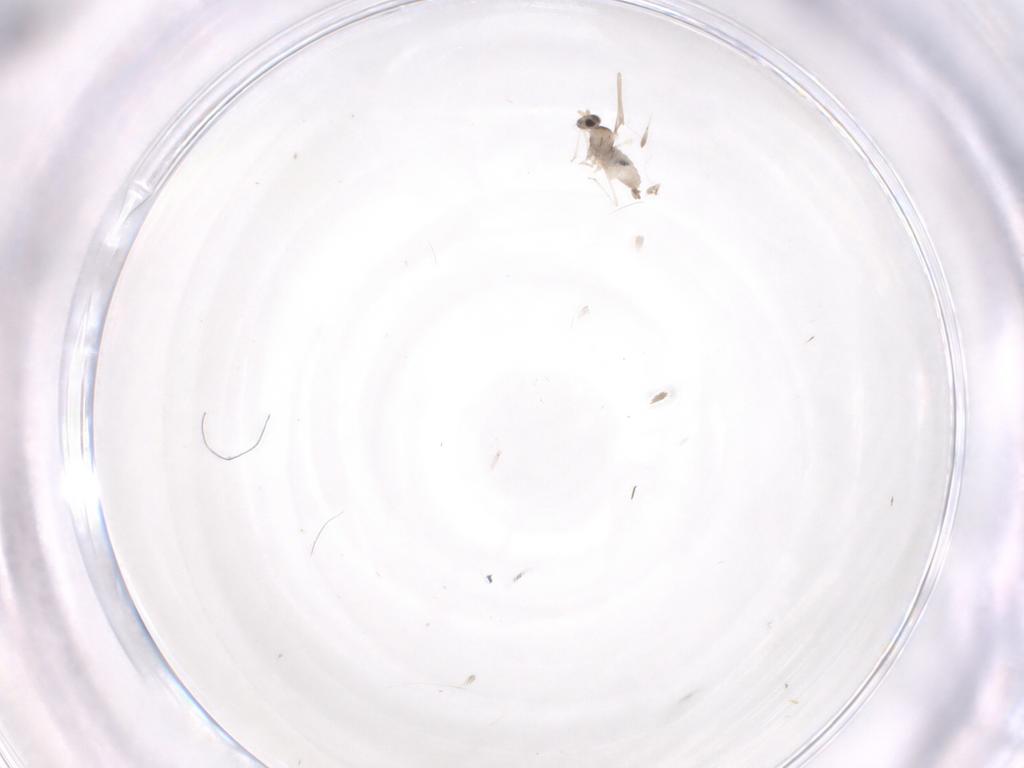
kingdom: Animalia
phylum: Arthropoda
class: Insecta
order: Diptera
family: Cecidomyiidae
